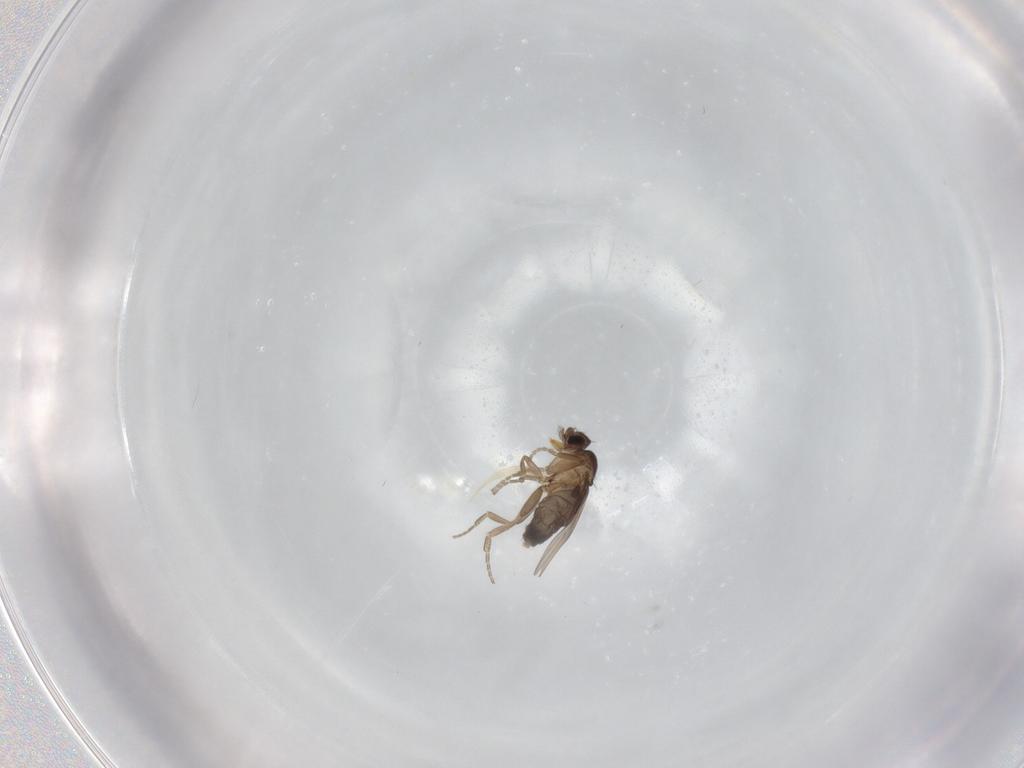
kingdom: Animalia
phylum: Arthropoda
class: Insecta
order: Diptera
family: Phoridae
